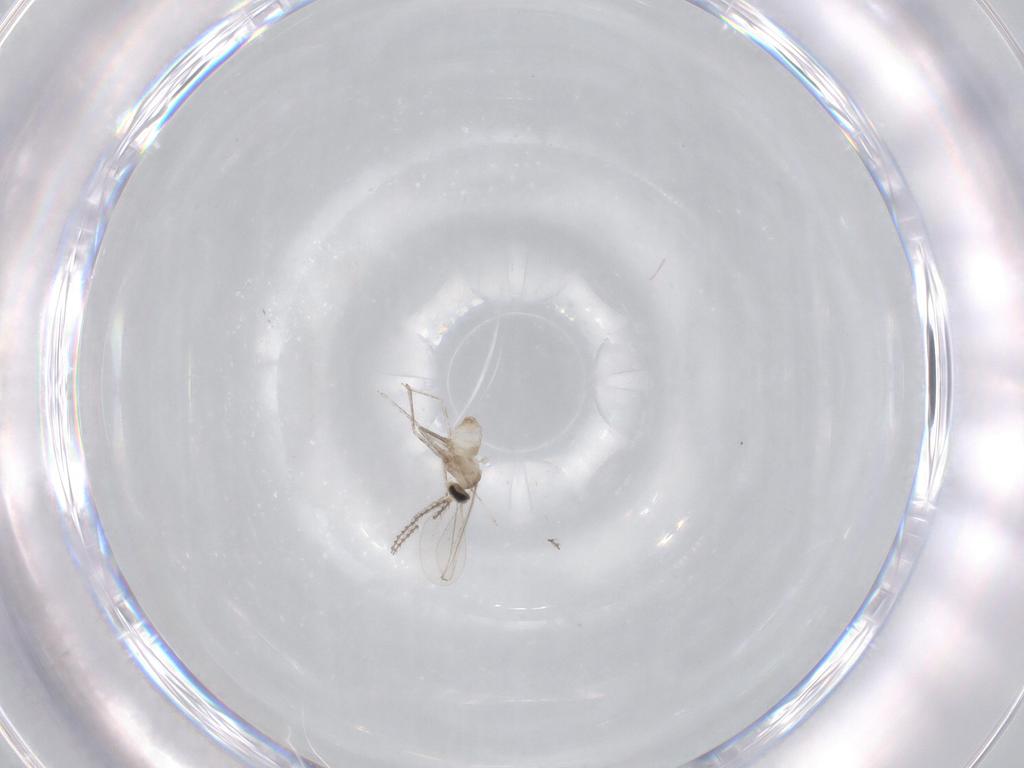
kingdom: Animalia
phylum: Arthropoda
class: Insecta
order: Diptera
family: Cecidomyiidae
